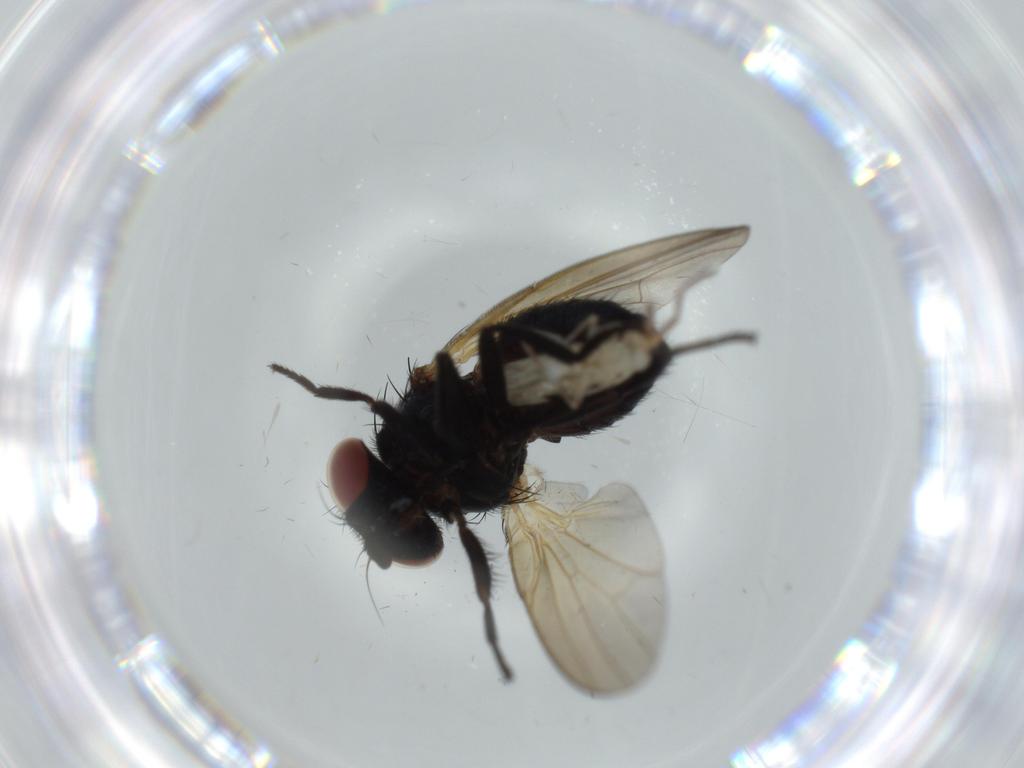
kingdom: Animalia
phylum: Arthropoda
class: Insecta
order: Diptera
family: Cecidomyiidae
